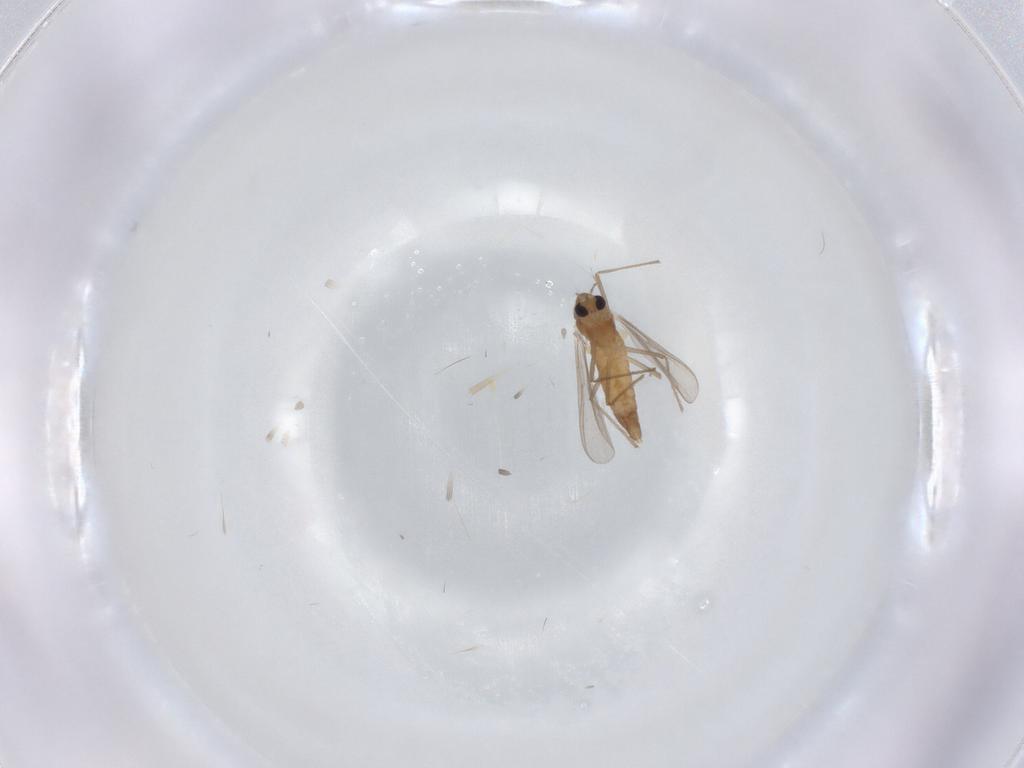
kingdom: Animalia
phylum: Arthropoda
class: Insecta
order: Diptera
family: Chironomidae
